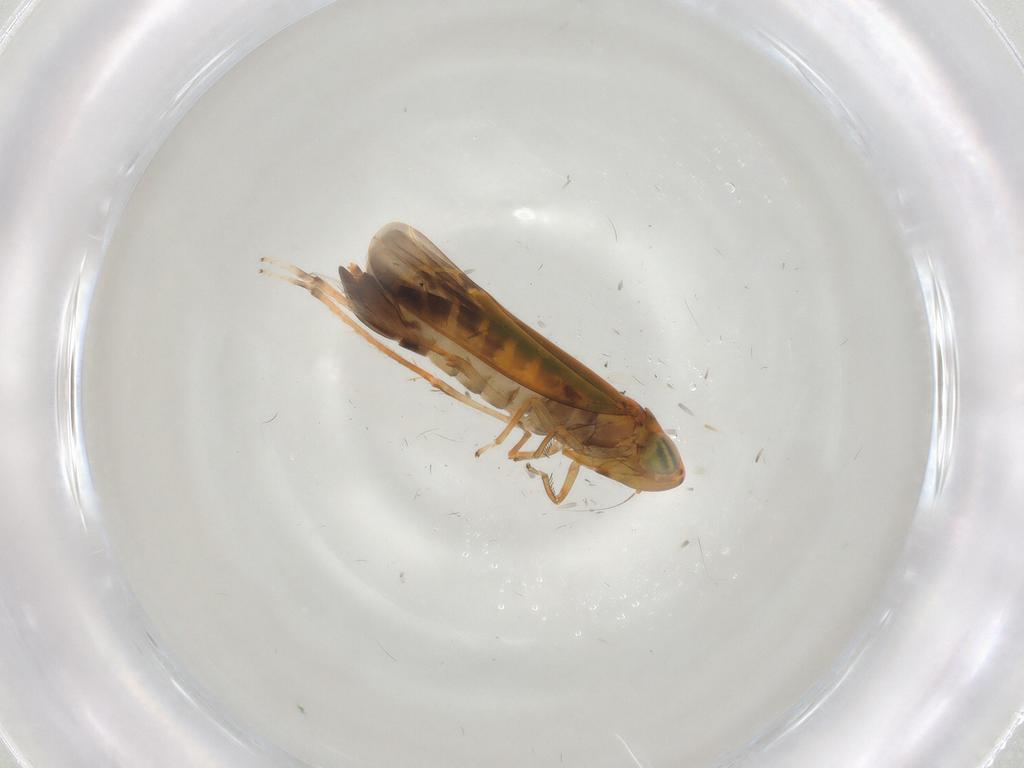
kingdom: Animalia
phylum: Arthropoda
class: Insecta
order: Hemiptera
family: Cicadellidae
